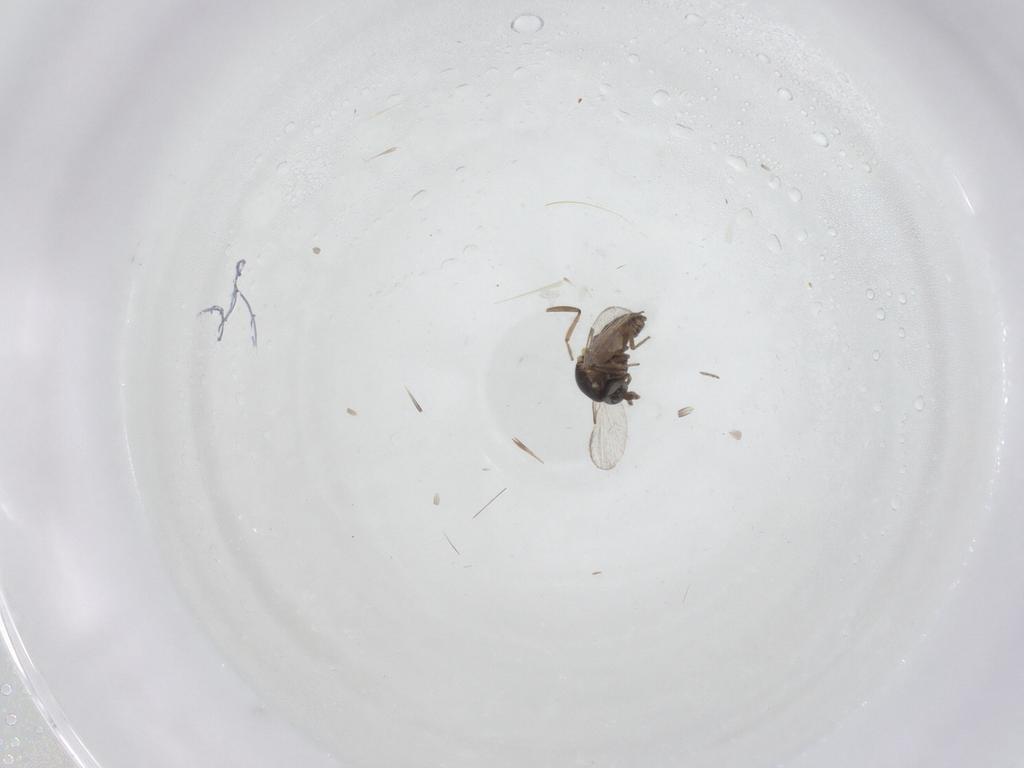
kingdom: Animalia
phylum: Arthropoda
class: Insecta
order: Diptera
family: Ceratopogonidae
